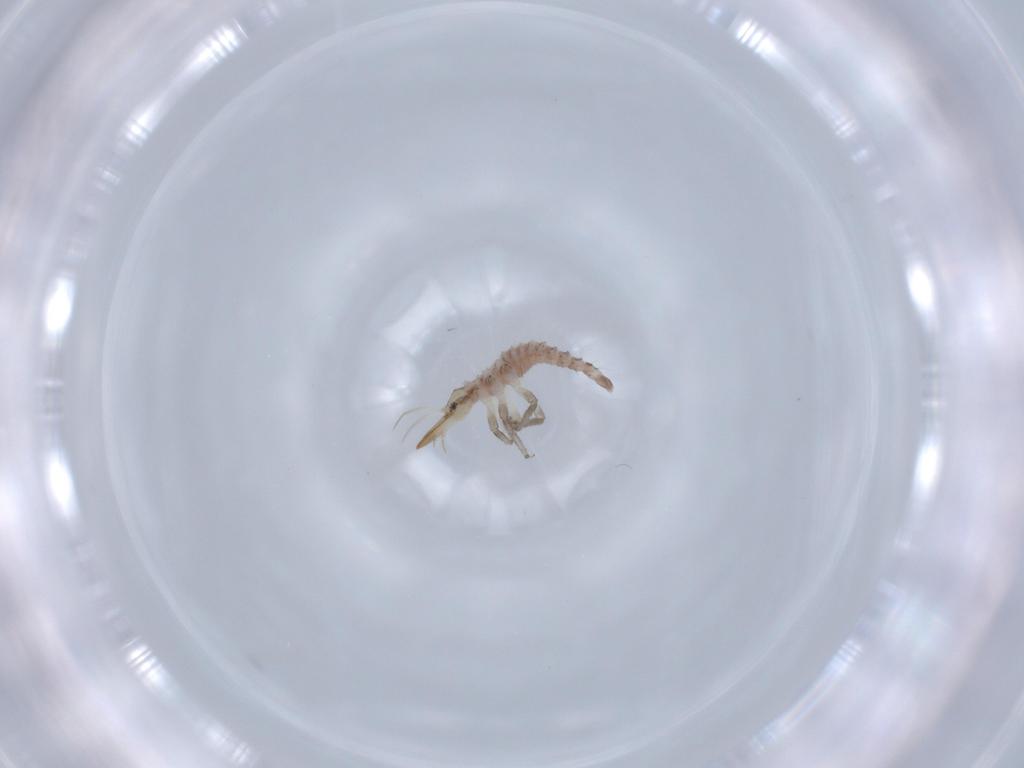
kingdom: Animalia
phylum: Arthropoda
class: Insecta
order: Neuroptera
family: Chrysopidae
